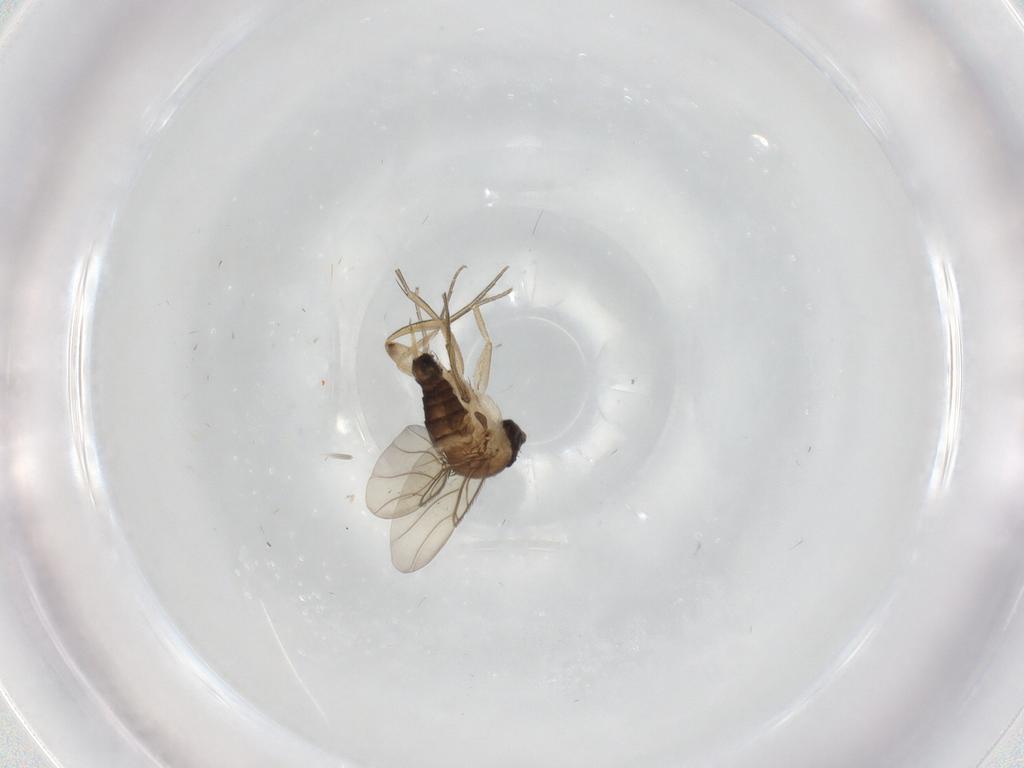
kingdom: Animalia
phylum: Arthropoda
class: Insecta
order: Diptera
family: Phoridae
